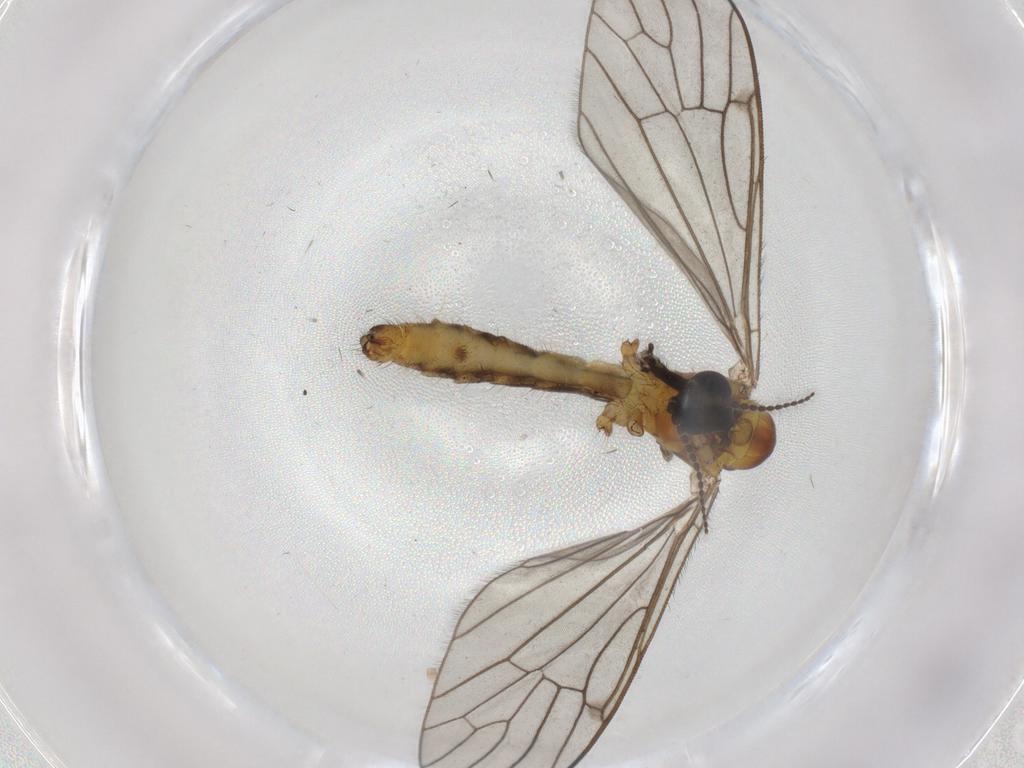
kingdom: Animalia
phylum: Arthropoda
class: Insecta
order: Diptera
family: Limoniidae
